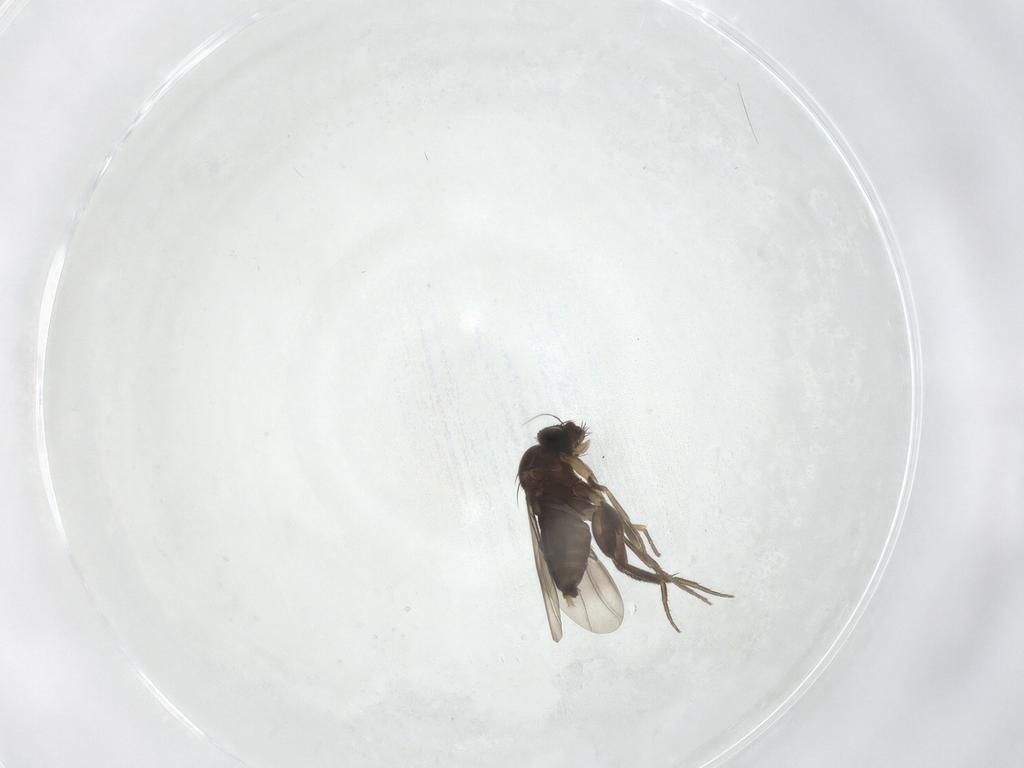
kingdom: Animalia
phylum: Arthropoda
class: Insecta
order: Diptera
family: Phoridae
